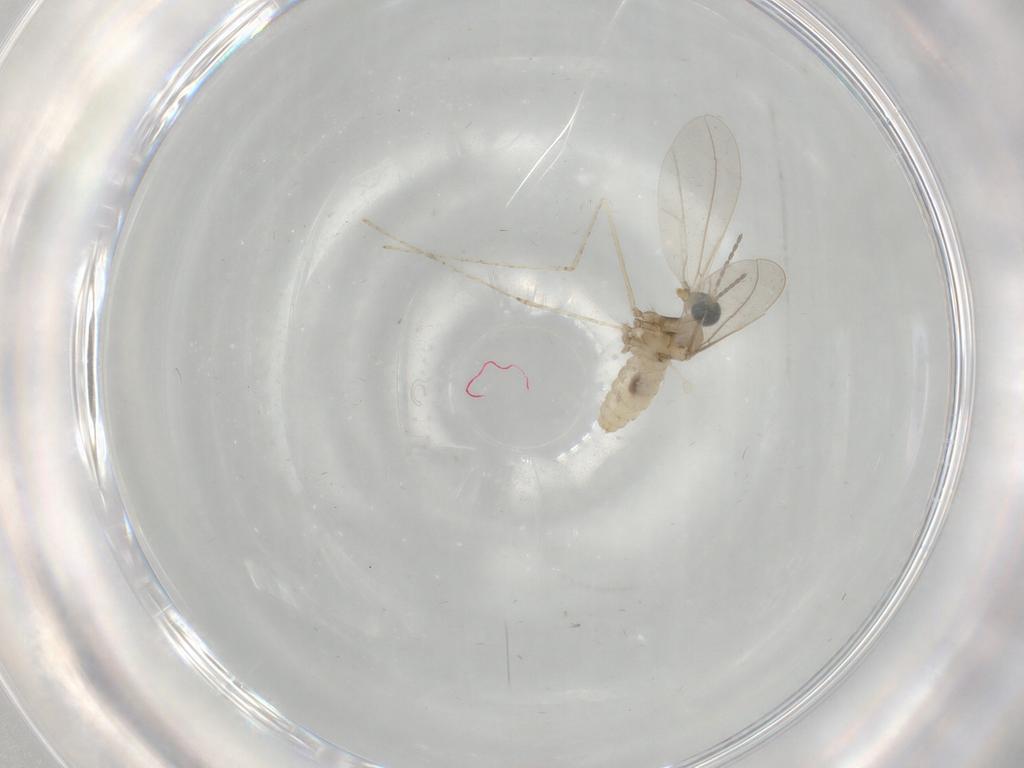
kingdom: Animalia
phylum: Arthropoda
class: Insecta
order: Diptera
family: Cecidomyiidae
